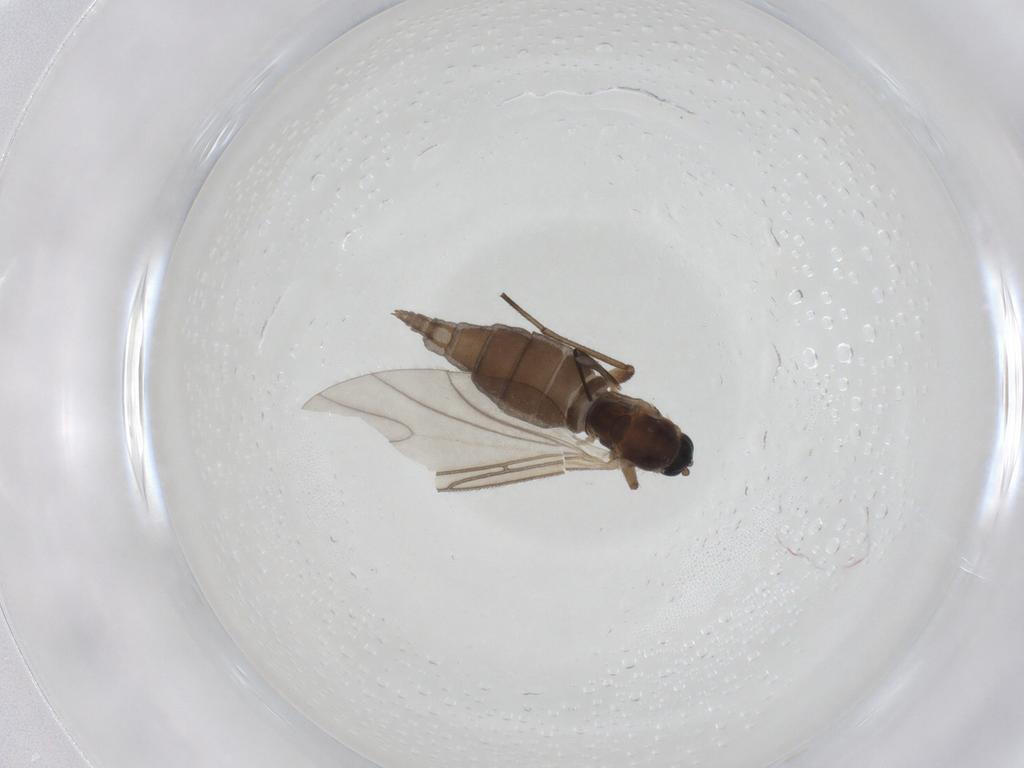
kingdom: Animalia
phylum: Arthropoda
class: Insecta
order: Diptera
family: Sciaridae
